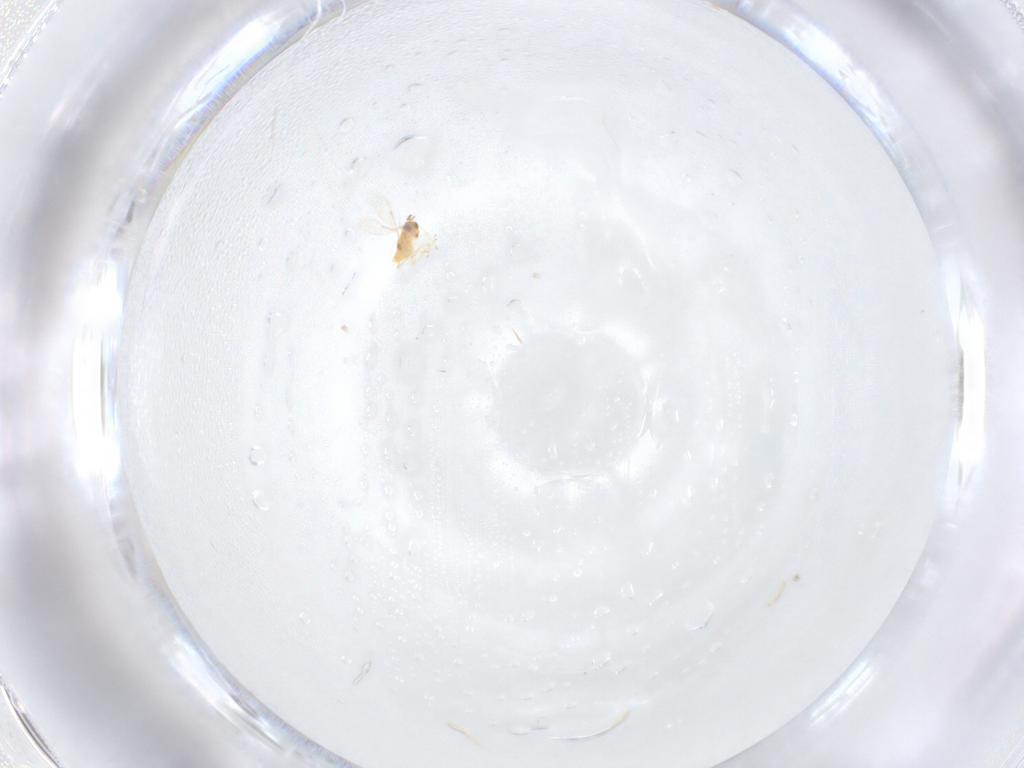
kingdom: Animalia
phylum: Arthropoda
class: Insecta
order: Hymenoptera
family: Aphelinidae
